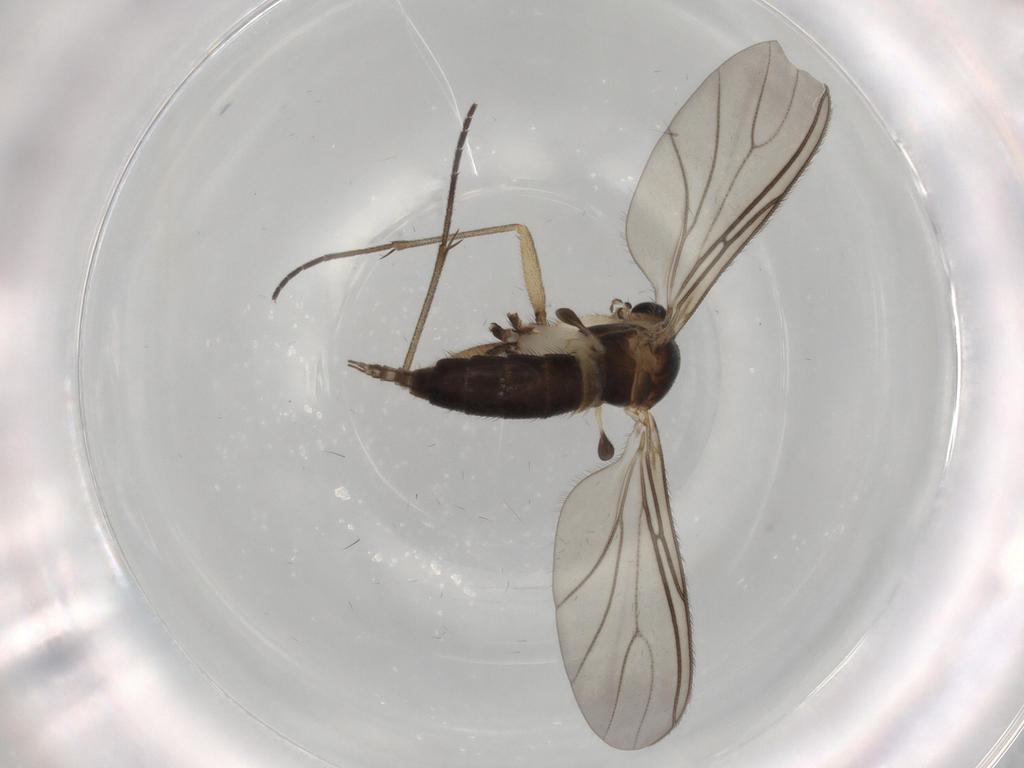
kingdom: Animalia
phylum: Arthropoda
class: Insecta
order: Diptera
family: Sciaridae
